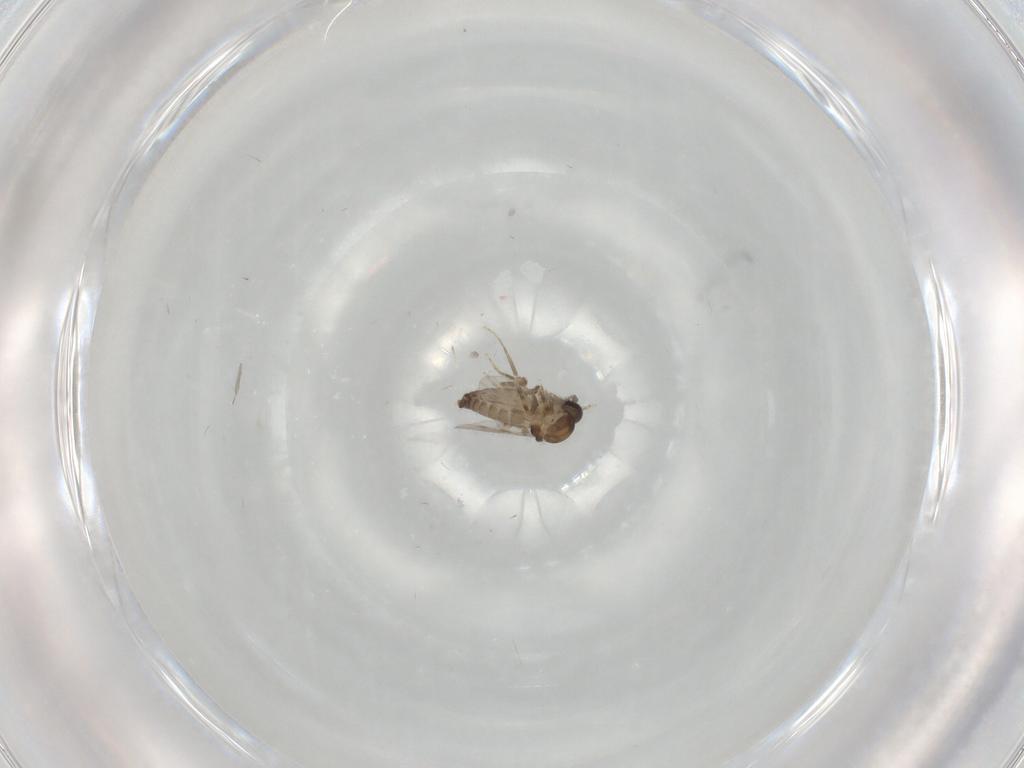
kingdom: Animalia
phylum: Arthropoda
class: Insecta
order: Diptera
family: Ceratopogonidae
